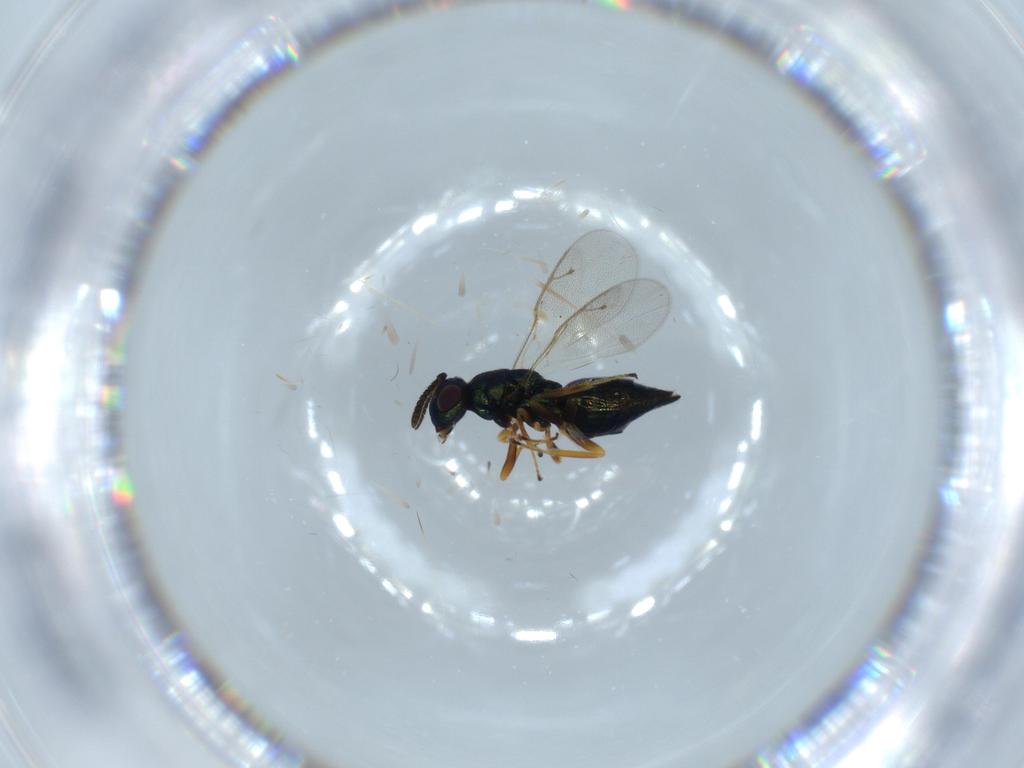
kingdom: Animalia
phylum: Arthropoda
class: Insecta
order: Hymenoptera
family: Pteromalidae
